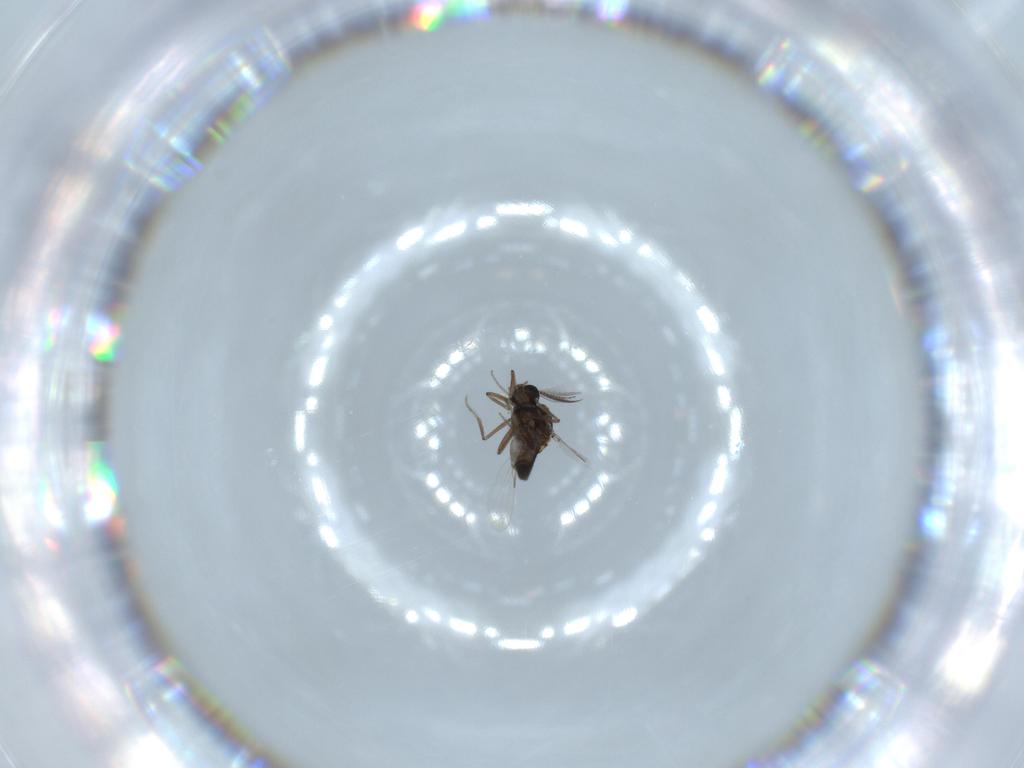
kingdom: Animalia
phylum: Arthropoda
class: Insecta
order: Diptera
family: Ceratopogonidae
